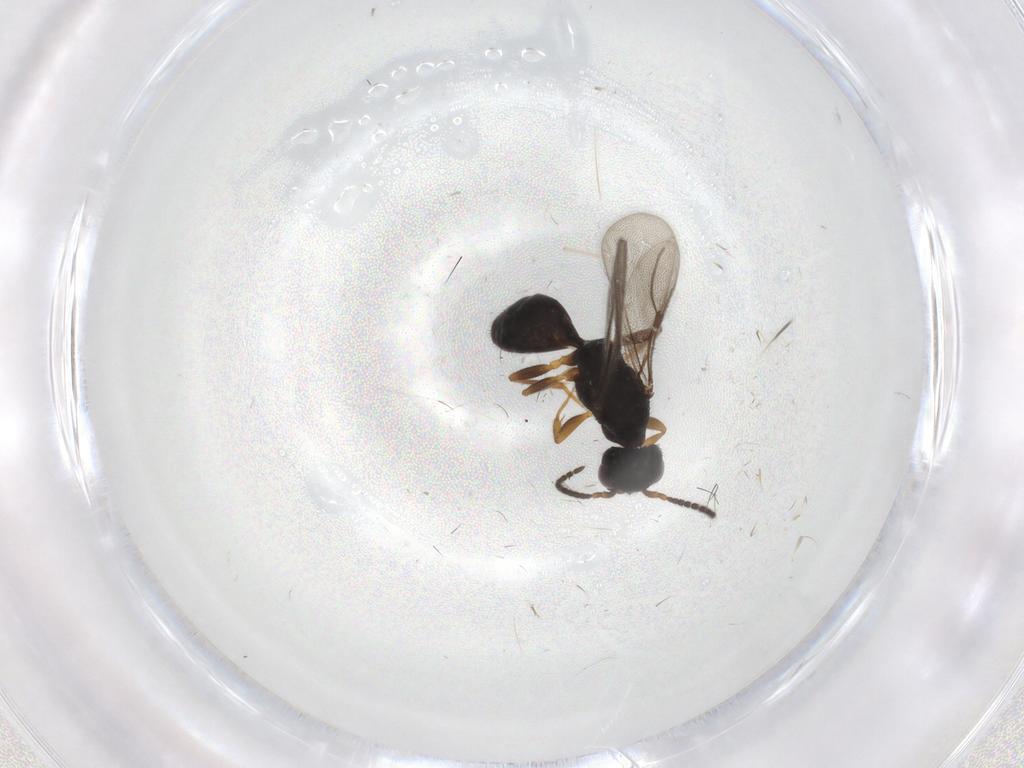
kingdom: Animalia
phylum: Arthropoda
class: Insecta
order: Hymenoptera
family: Bethylidae
